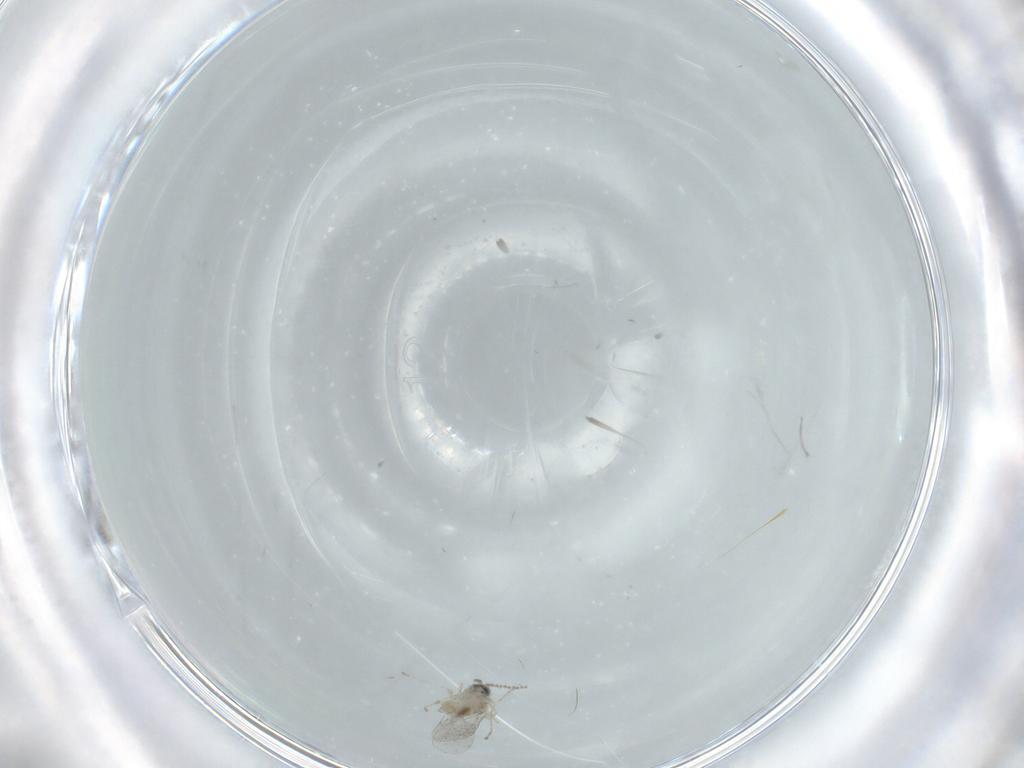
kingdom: Animalia
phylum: Arthropoda
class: Insecta
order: Diptera
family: Cecidomyiidae
